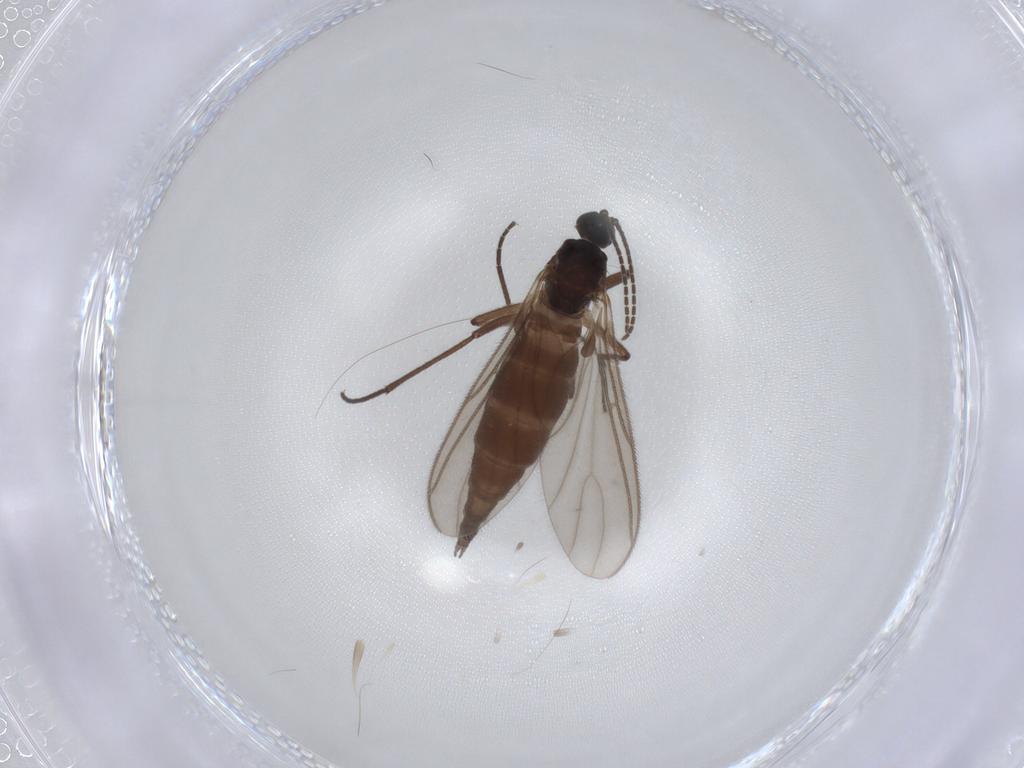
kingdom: Animalia
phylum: Arthropoda
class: Insecta
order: Diptera
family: Sciaridae
